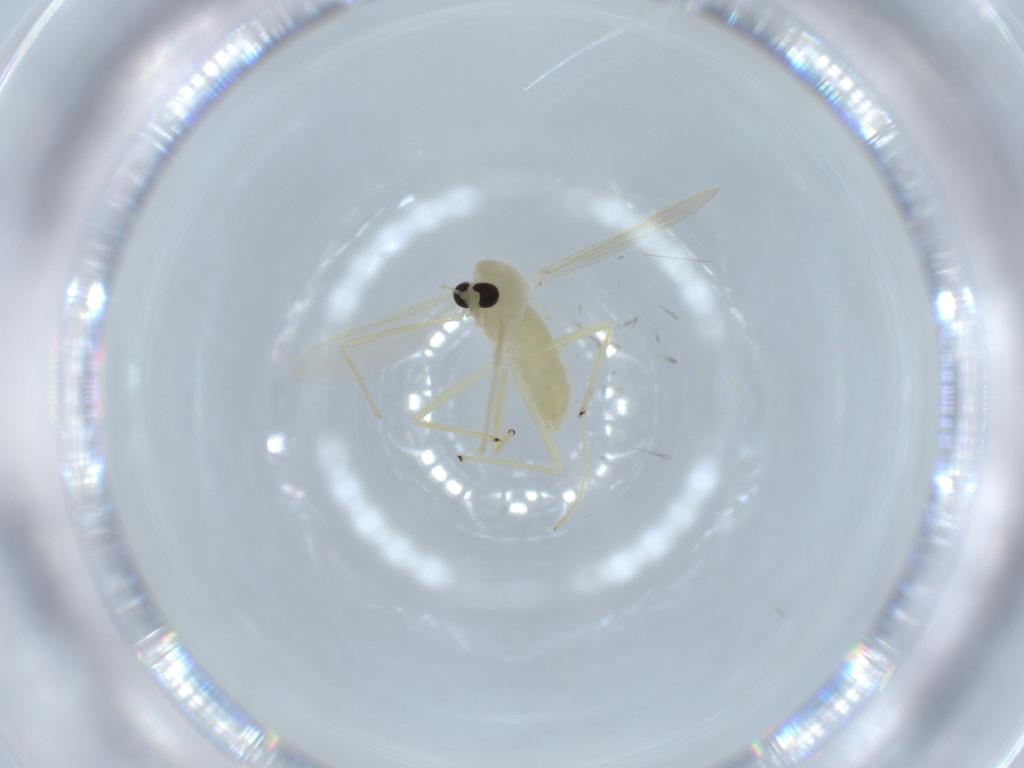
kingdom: Animalia
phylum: Arthropoda
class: Insecta
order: Diptera
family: Chironomidae
